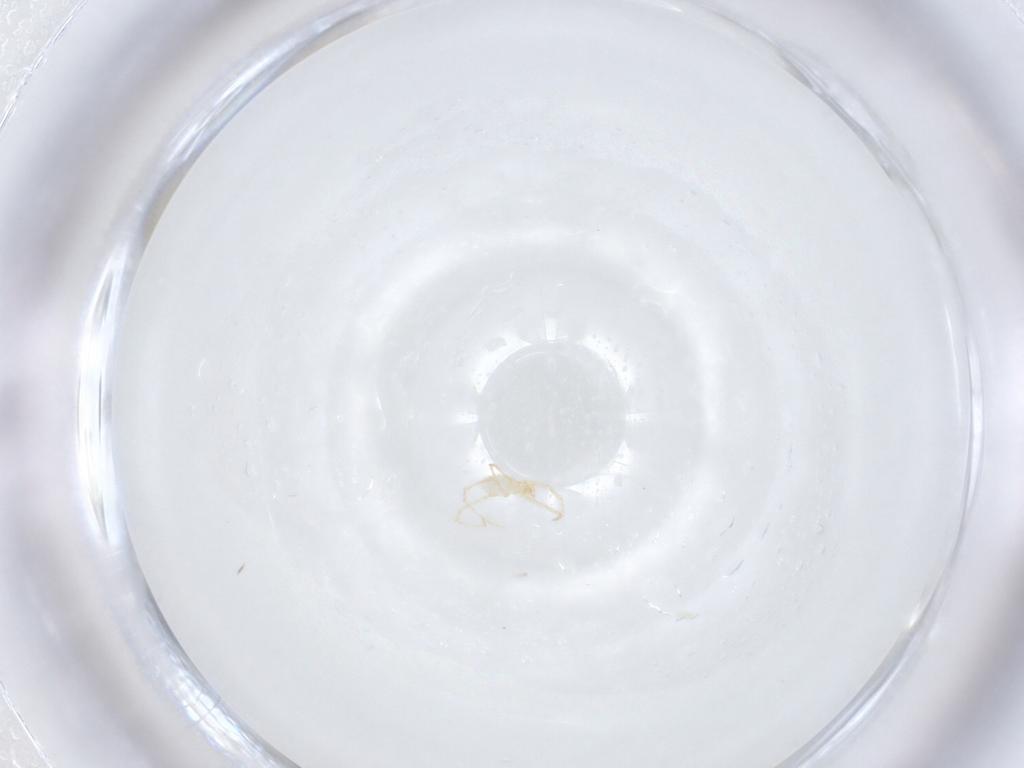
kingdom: Animalia
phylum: Arthropoda
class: Arachnida
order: Trombidiformes
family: Erythraeidae
